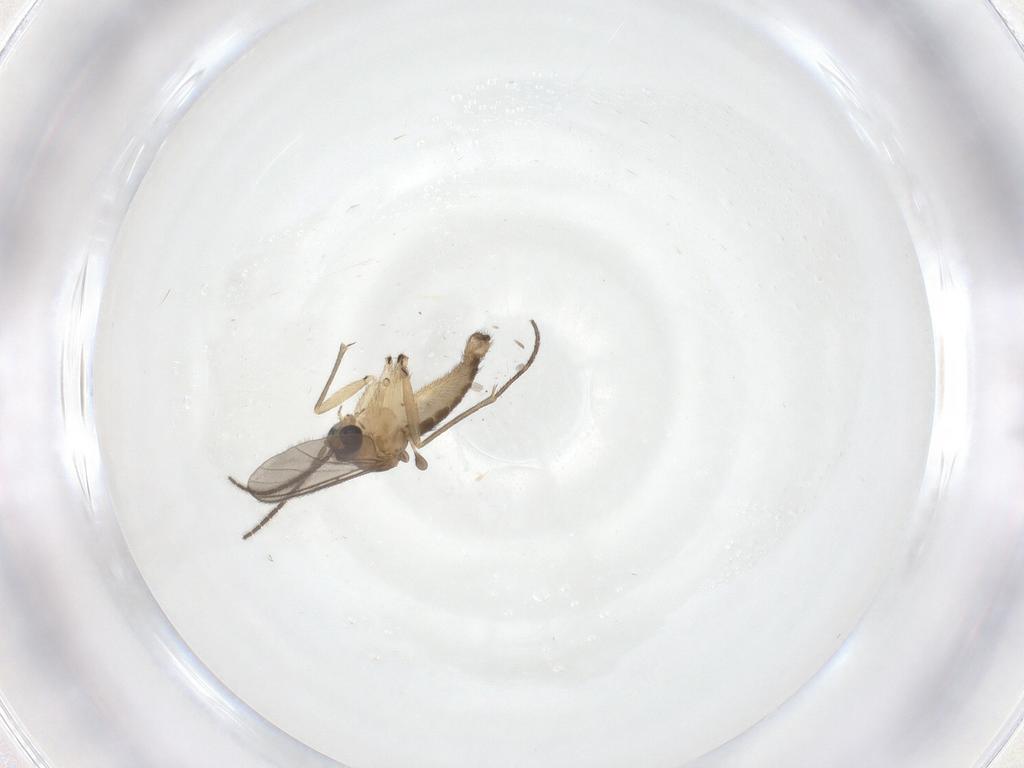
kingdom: Animalia
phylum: Arthropoda
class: Insecta
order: Diptera
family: Sciaridae
